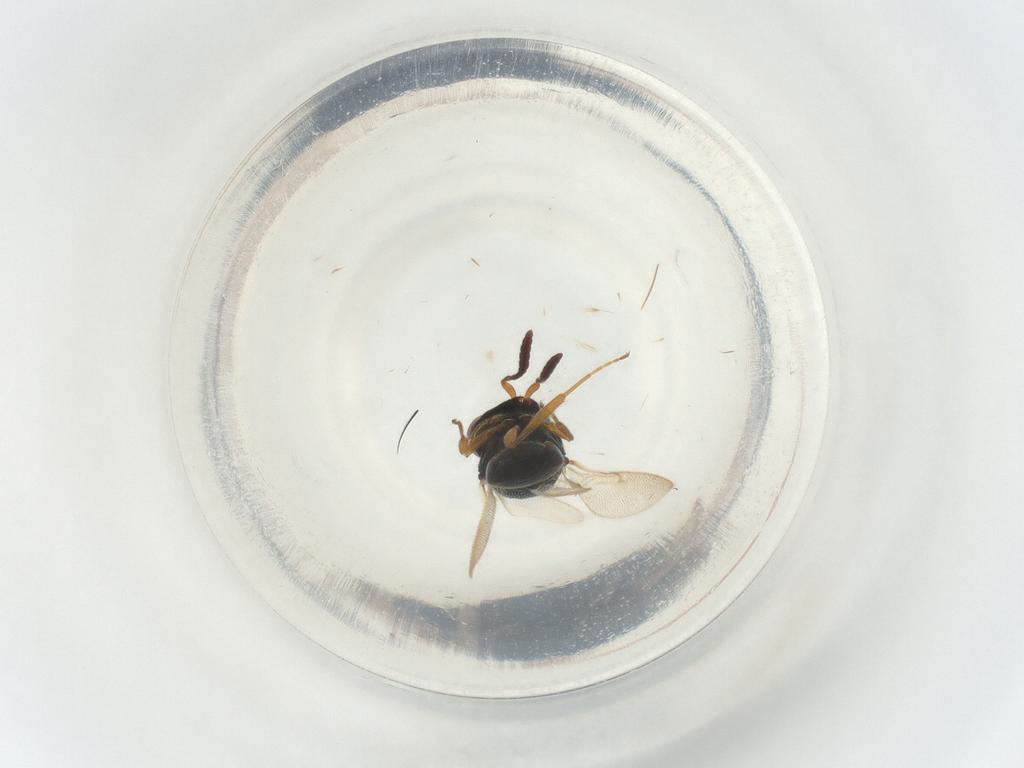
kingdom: Animalia
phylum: Arthropoda
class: Insecta
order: Hymenoptera
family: Scelionidae
